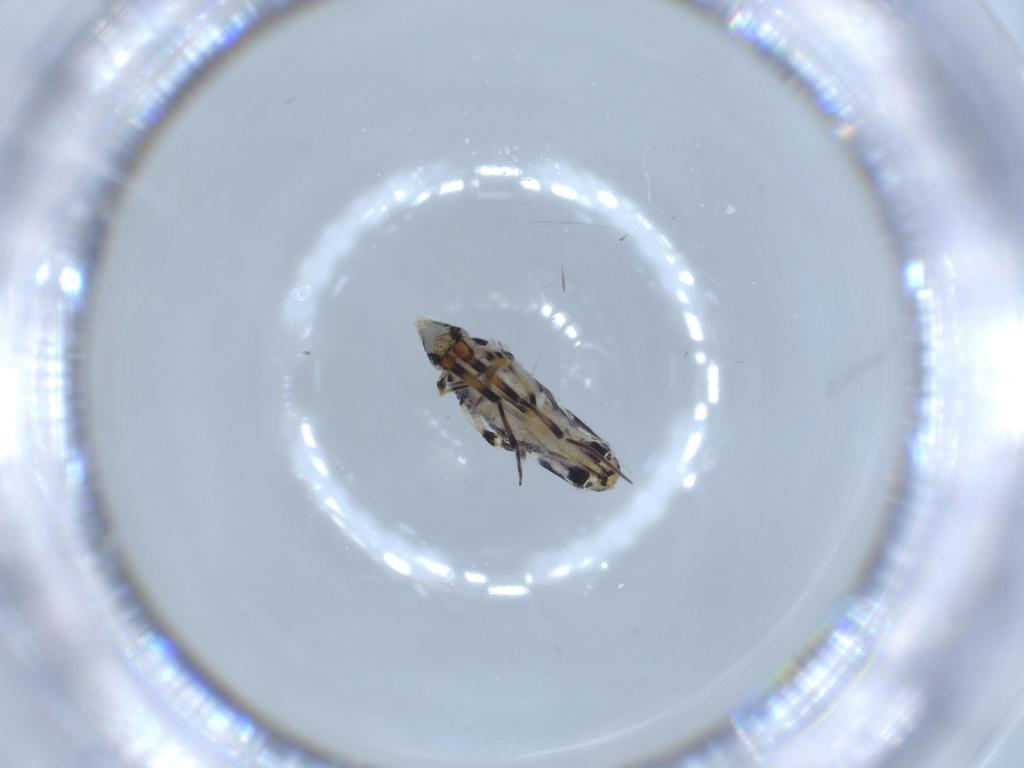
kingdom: Animalia
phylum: Arthropoda
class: Collembola
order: Entomobryomorpha
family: Entomobryidae
